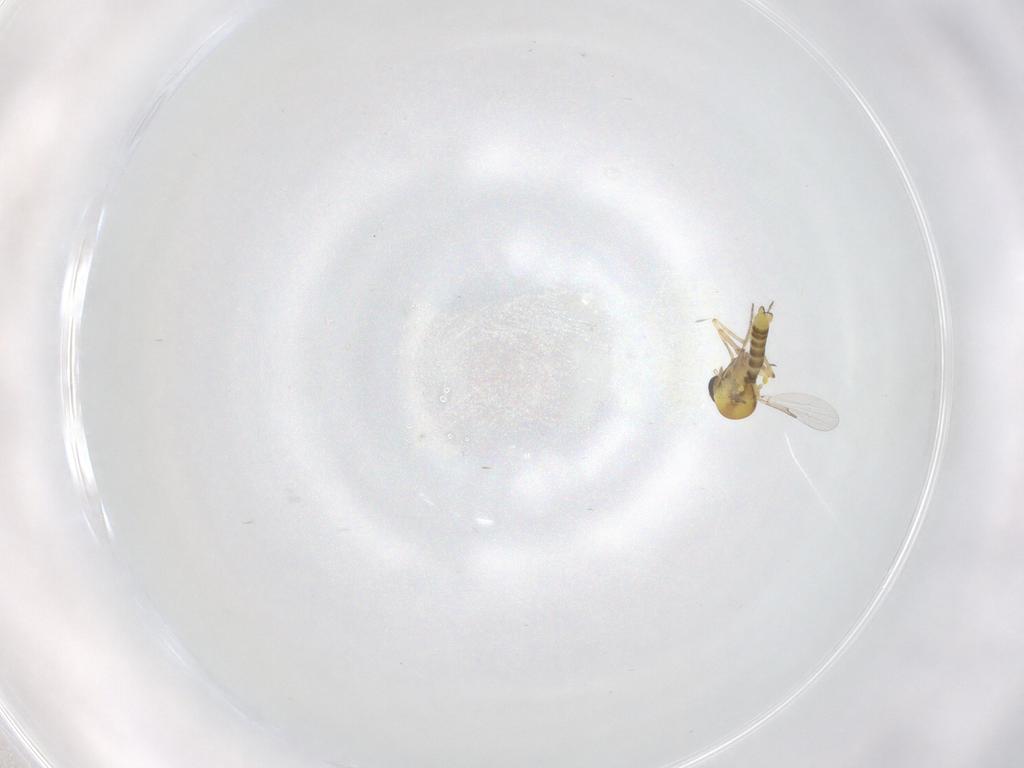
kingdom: Animalia
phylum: Arthropoda
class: Insecta
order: Diptera
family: Ceratopogonidae
